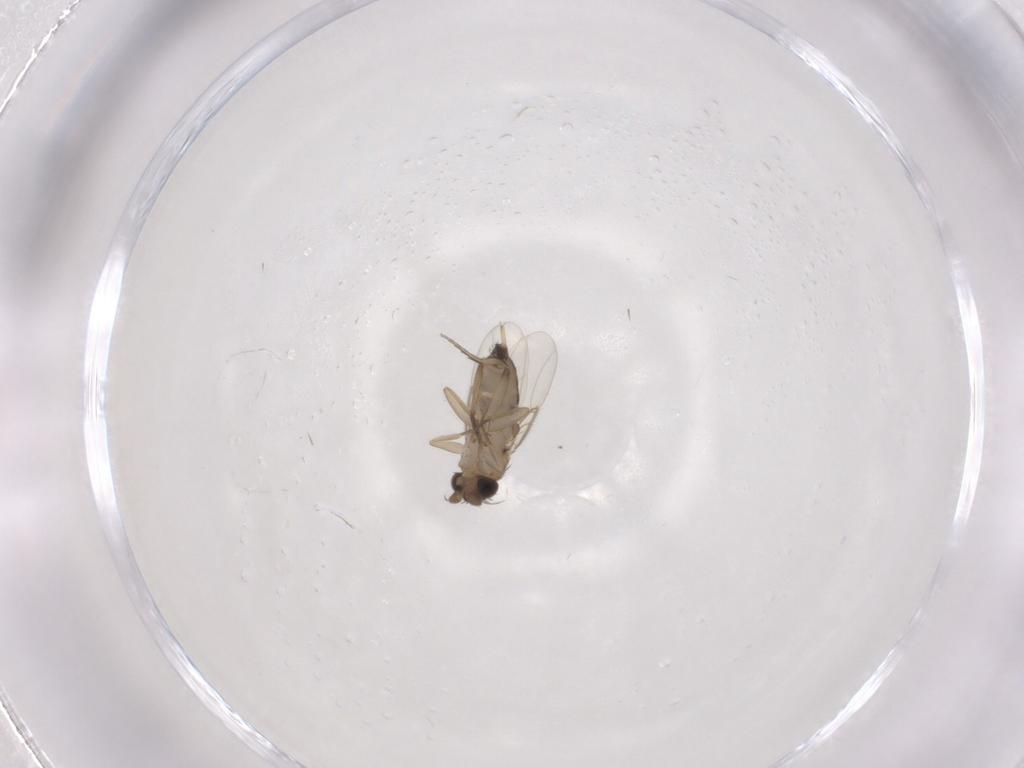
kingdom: Animalia
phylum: Arthropoda
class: Insecta
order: Diptera
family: Phoridae
